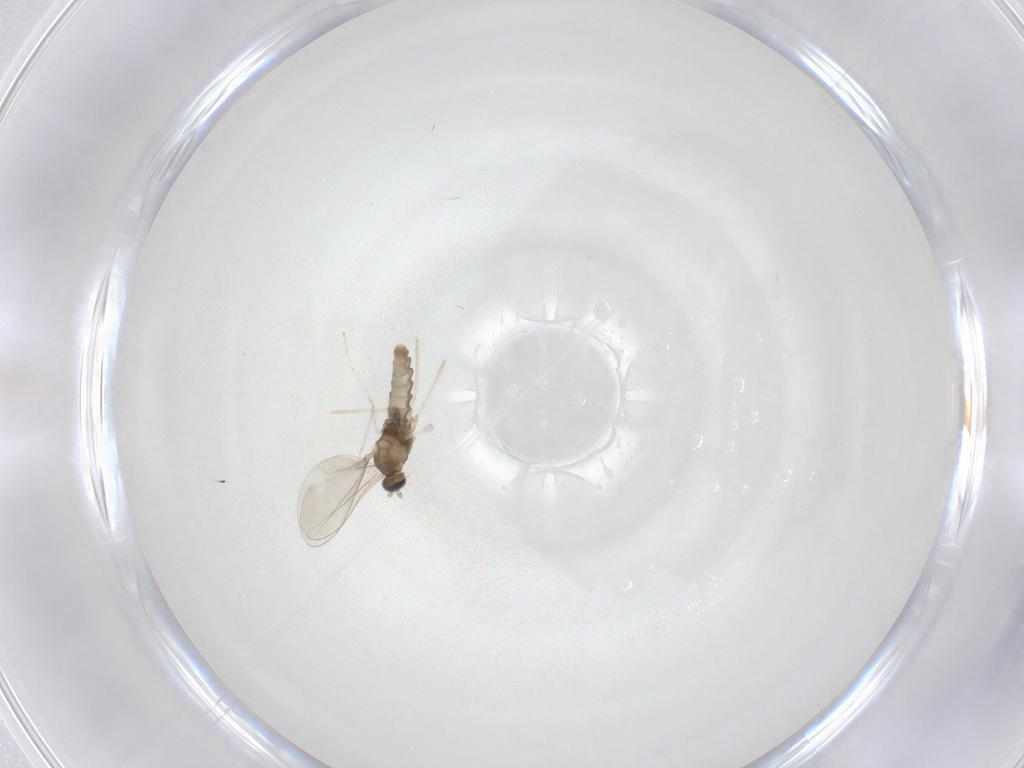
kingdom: Animalia
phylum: Arthropoda
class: Insecta
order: Diptera
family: Cecidomyiidae
